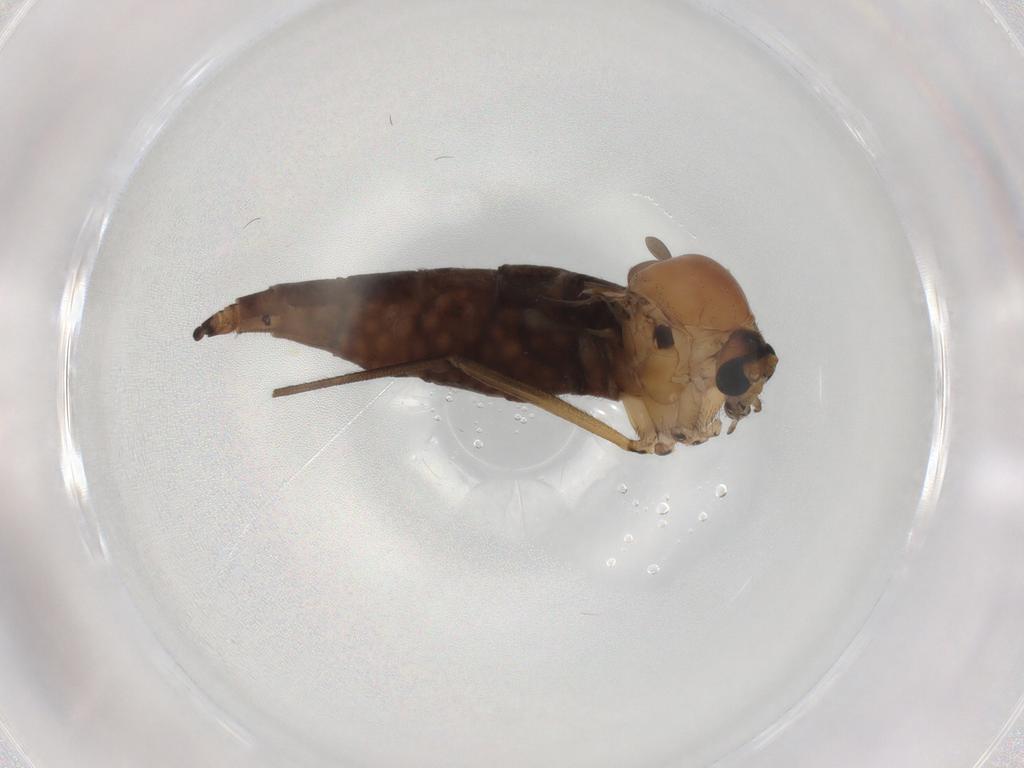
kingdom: Animalia
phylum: Arthropoda
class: Insecta
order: Diptera
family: Sciaridae
